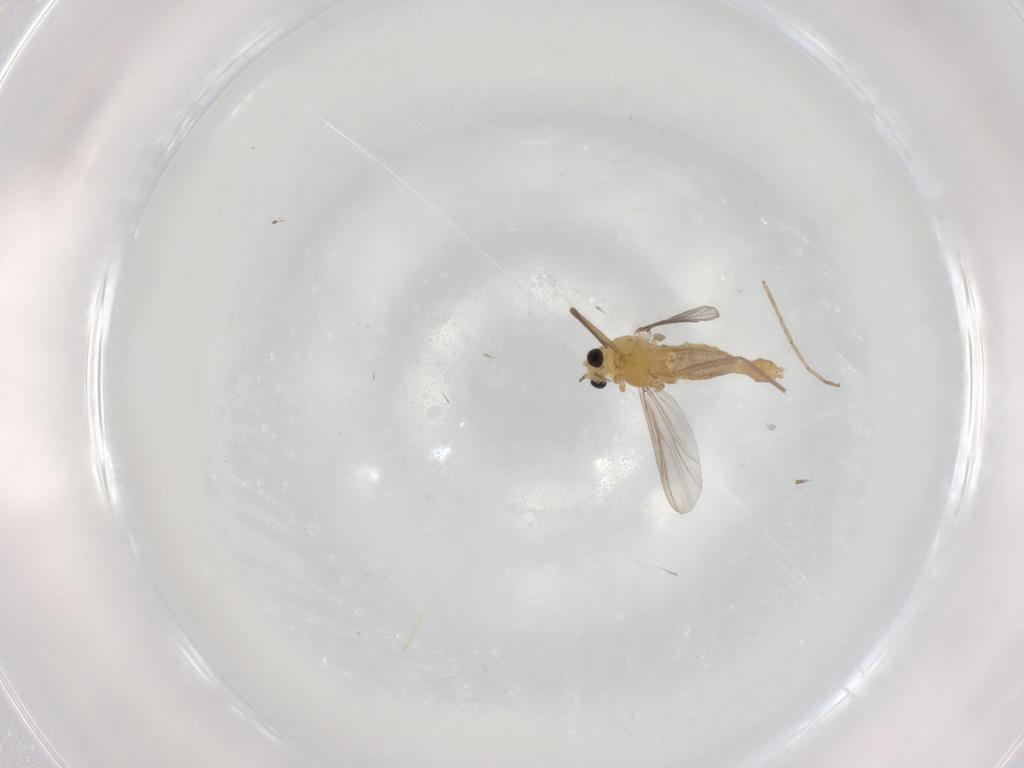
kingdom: Animalia
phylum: Arthropoda
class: Insecta
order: Diptera
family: Chironomidae
